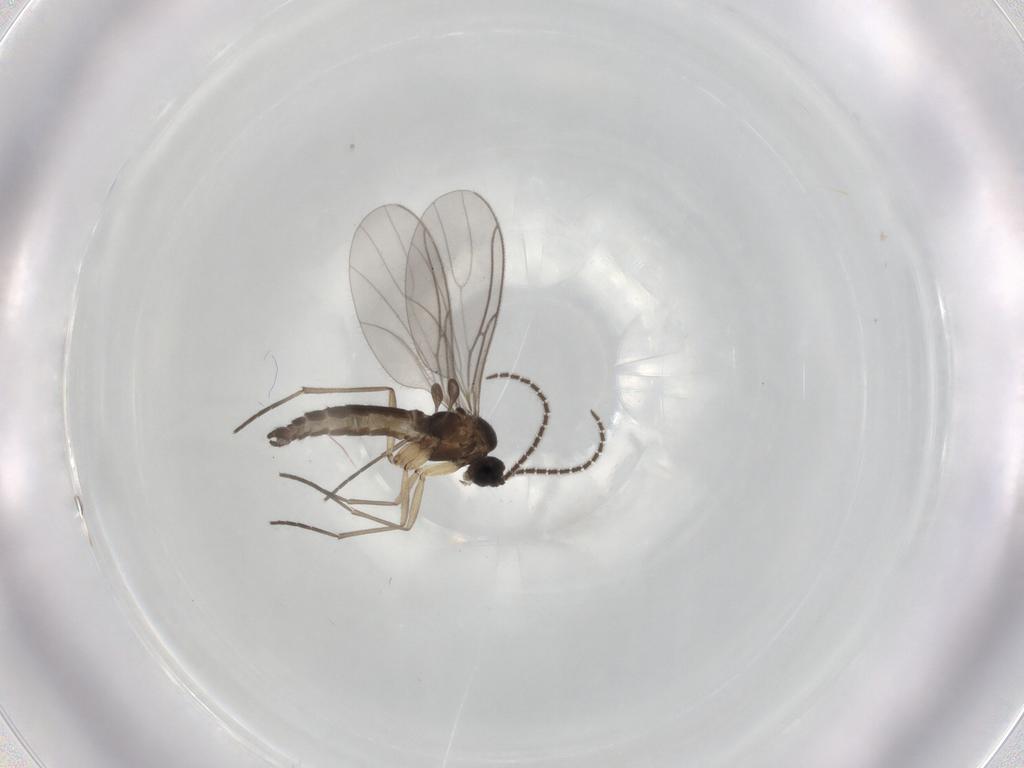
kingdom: Animalia
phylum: Arthropoda
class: Insecta
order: Diptera
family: Sciaridae
